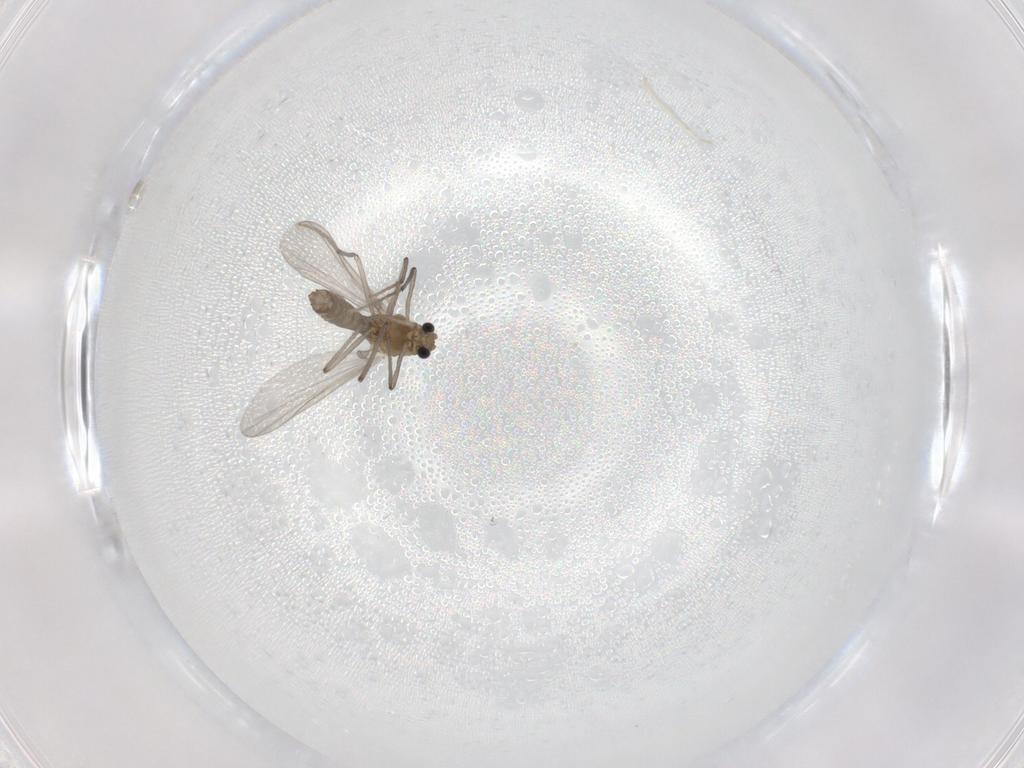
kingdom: Animalia
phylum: Arthropoda
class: Insecta
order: Diptera
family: Chironomidae
